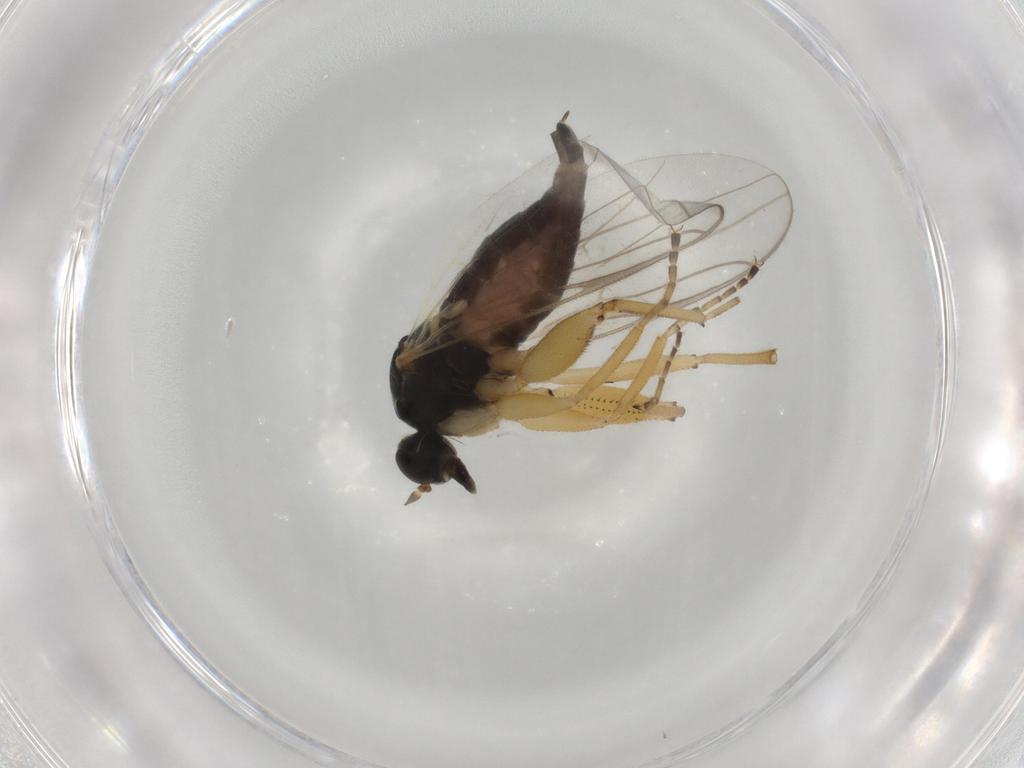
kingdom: Animalia
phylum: Arthropoda
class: Insecta
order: Diptera
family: Dolichopodidae
